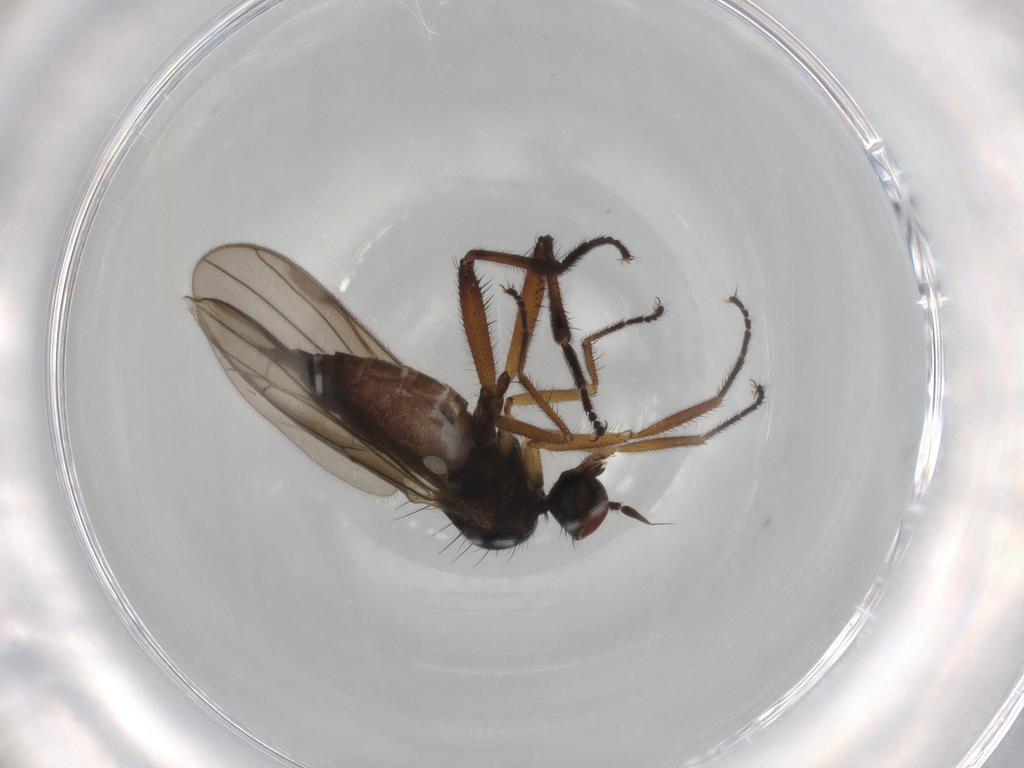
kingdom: Animalia
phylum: Arthropoda
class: Insecta
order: Diptera
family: Hybotidae
